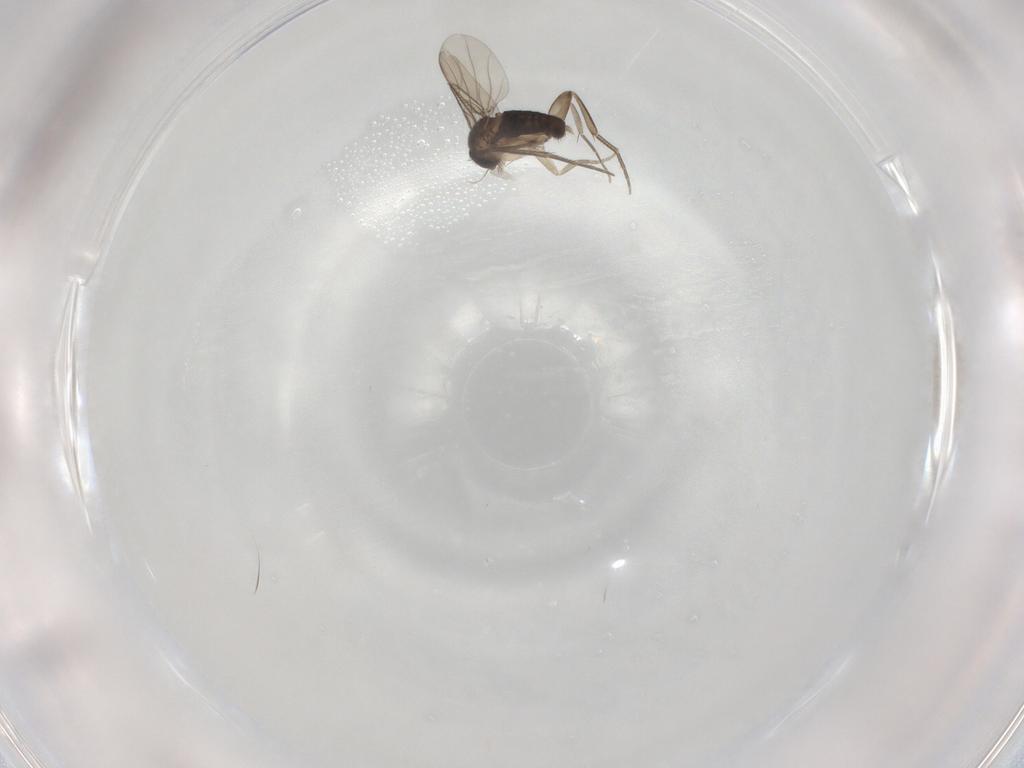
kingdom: Animalia
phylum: Arthropoda
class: Insecta
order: Diptera
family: Phoridae
